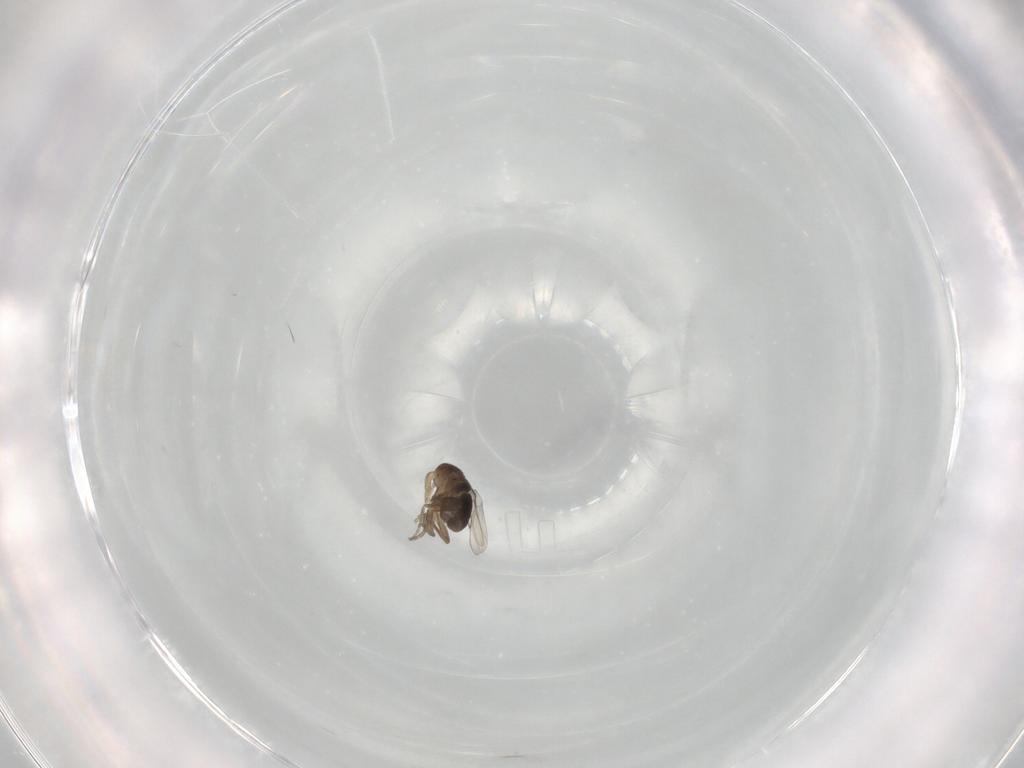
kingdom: Animalia
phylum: Arthropoda
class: Insecta
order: Diptera
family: Phoridae
